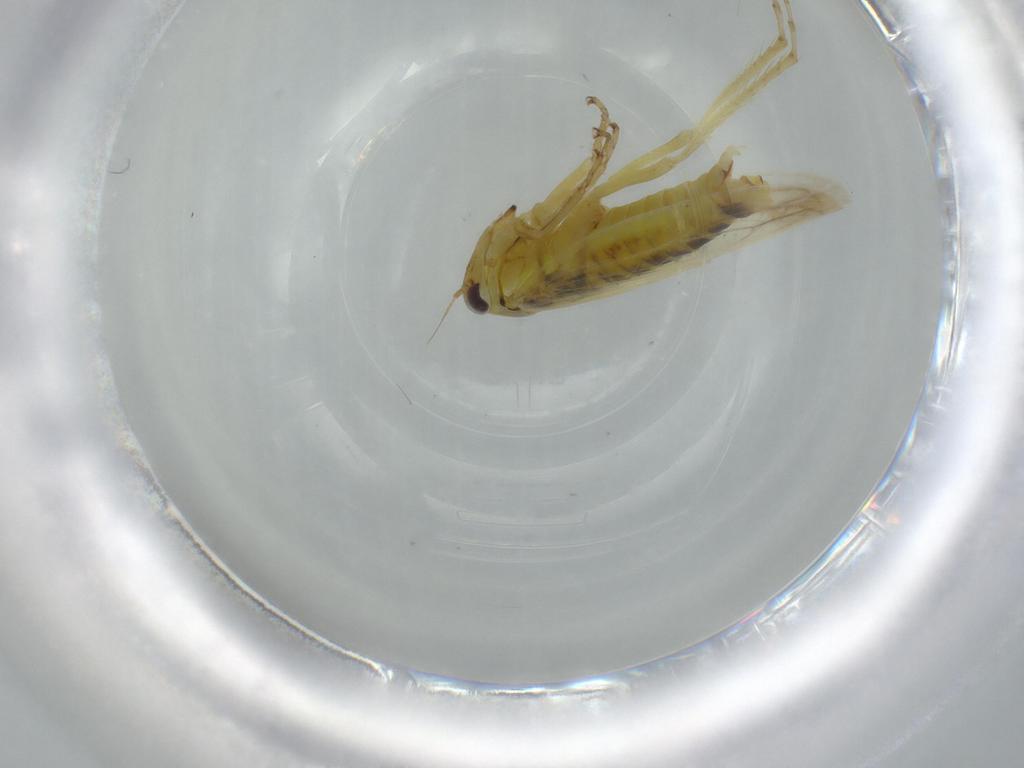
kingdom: Animalia
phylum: Arthropoda
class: Insecta
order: Hemiptera
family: Cicadellidae
